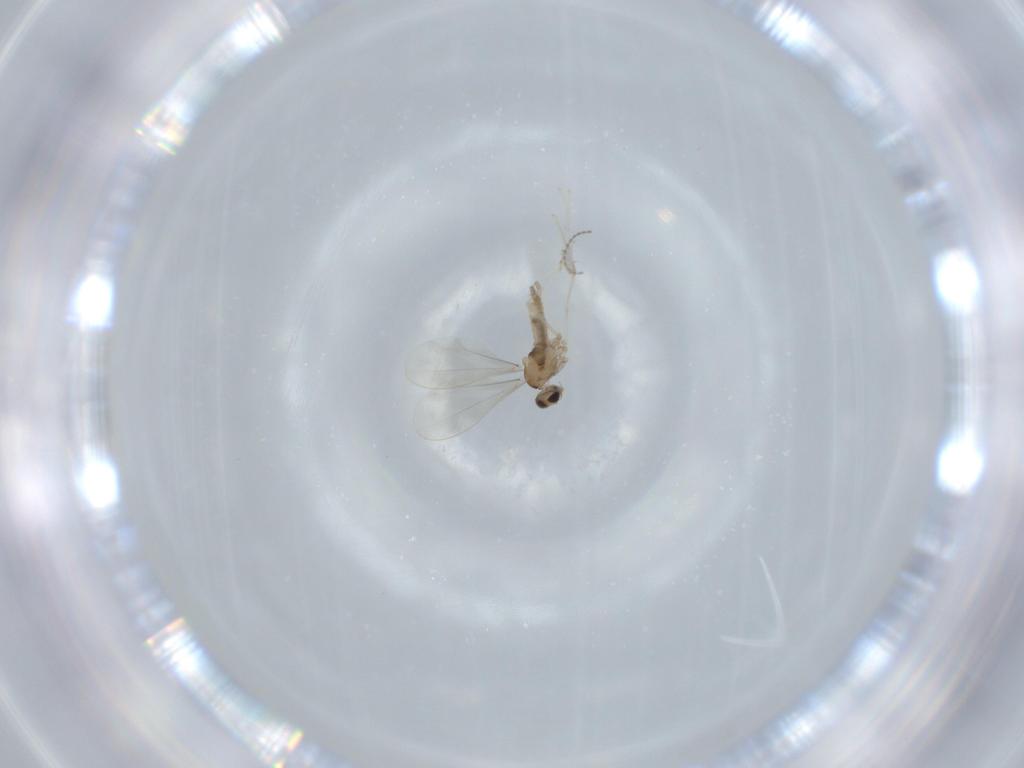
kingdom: Animalia
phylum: Arthropoda
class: Insecta
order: Diptera
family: Cecidomyiidae
